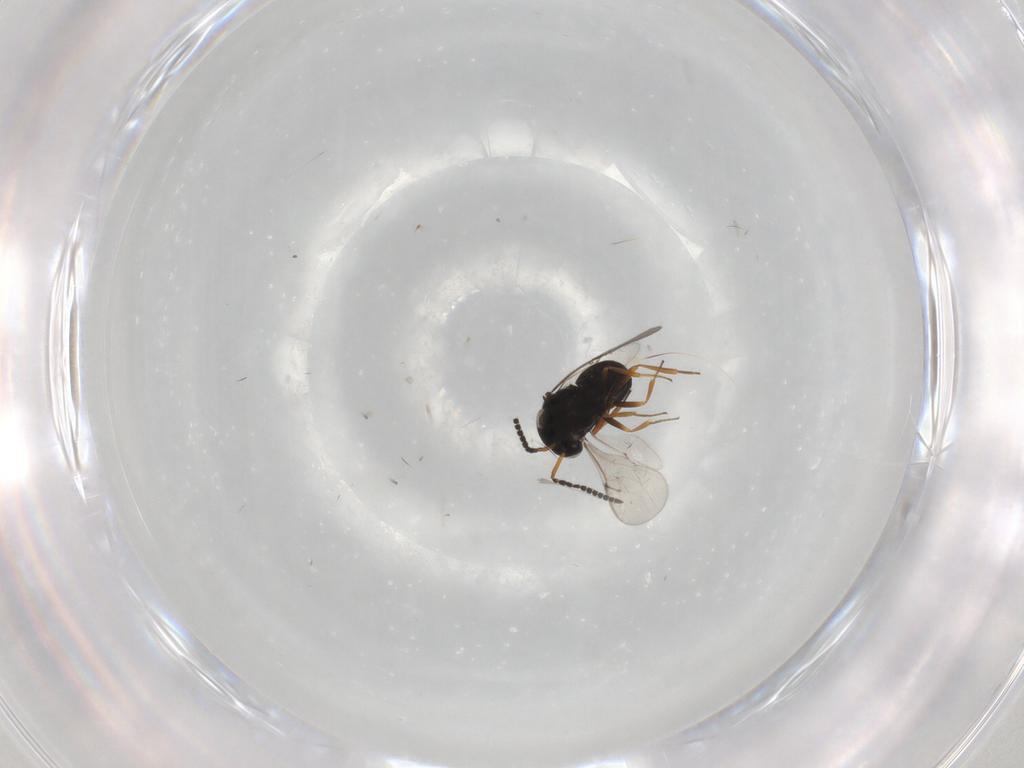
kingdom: Animalia
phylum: Arthropoda
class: Insecta
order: Hymenoptera
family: Scelionidae
